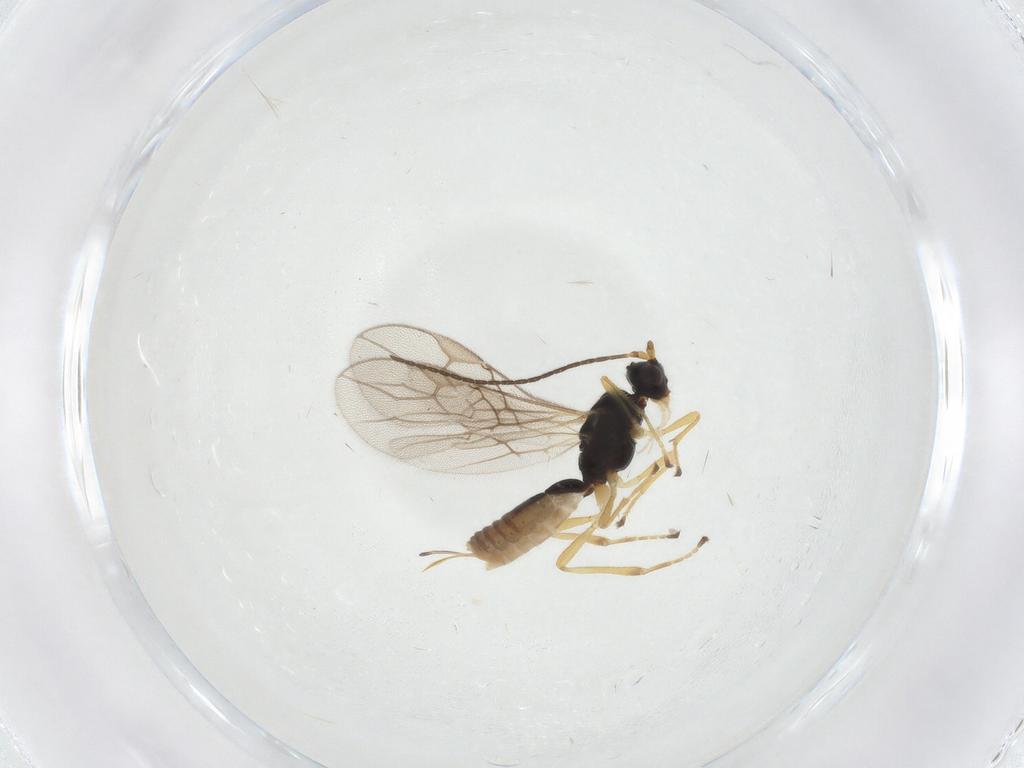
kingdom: Animalia
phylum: Arthropoda
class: Insecta
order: Hymenoptera
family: Braconidae
